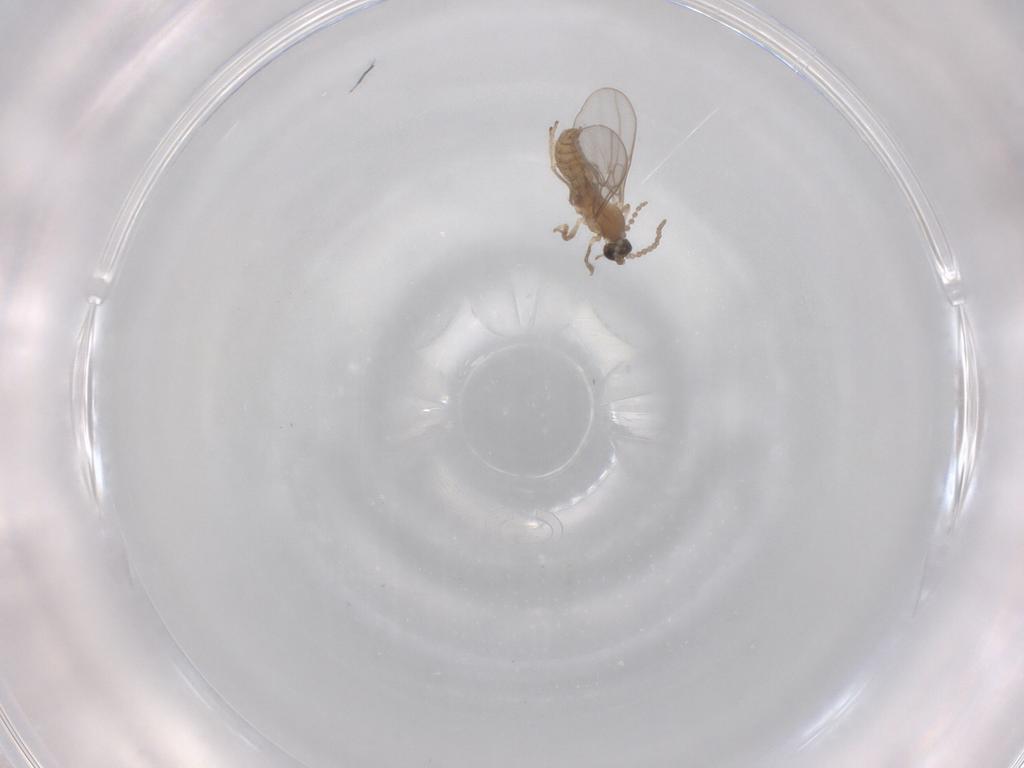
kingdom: Animalia
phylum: Arthropoda
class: Insecta
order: Diptera
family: Cecidomyiidae
